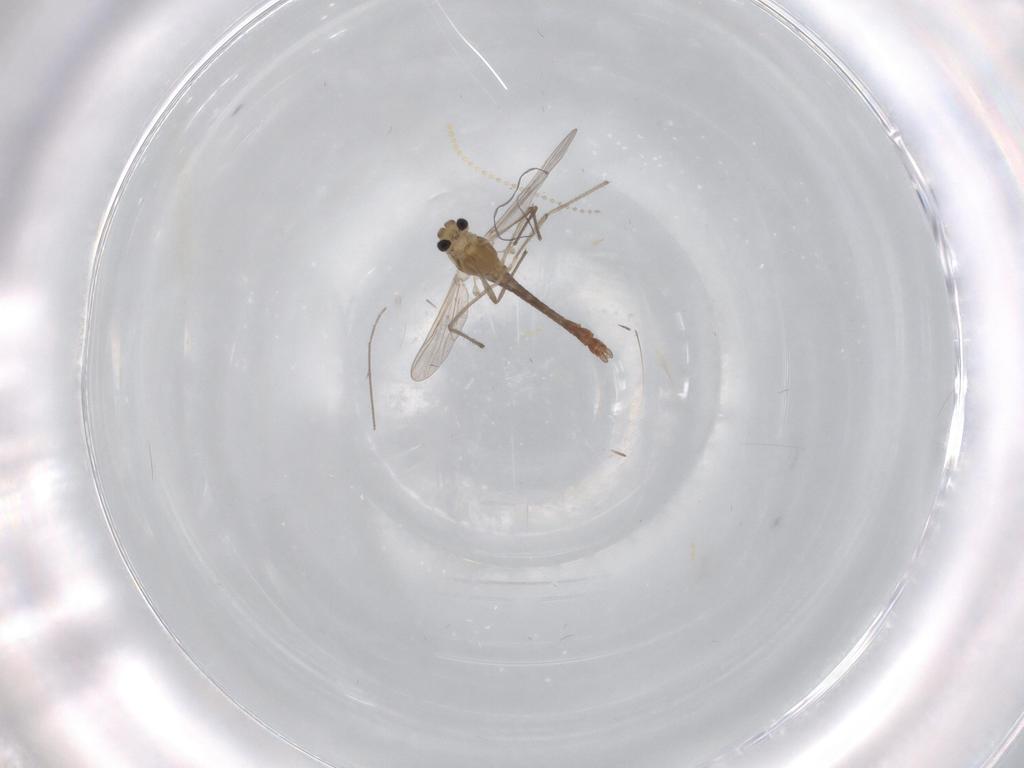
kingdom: Animalia
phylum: Arthropoda
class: Insecta
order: Diptera
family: Chironomidae
